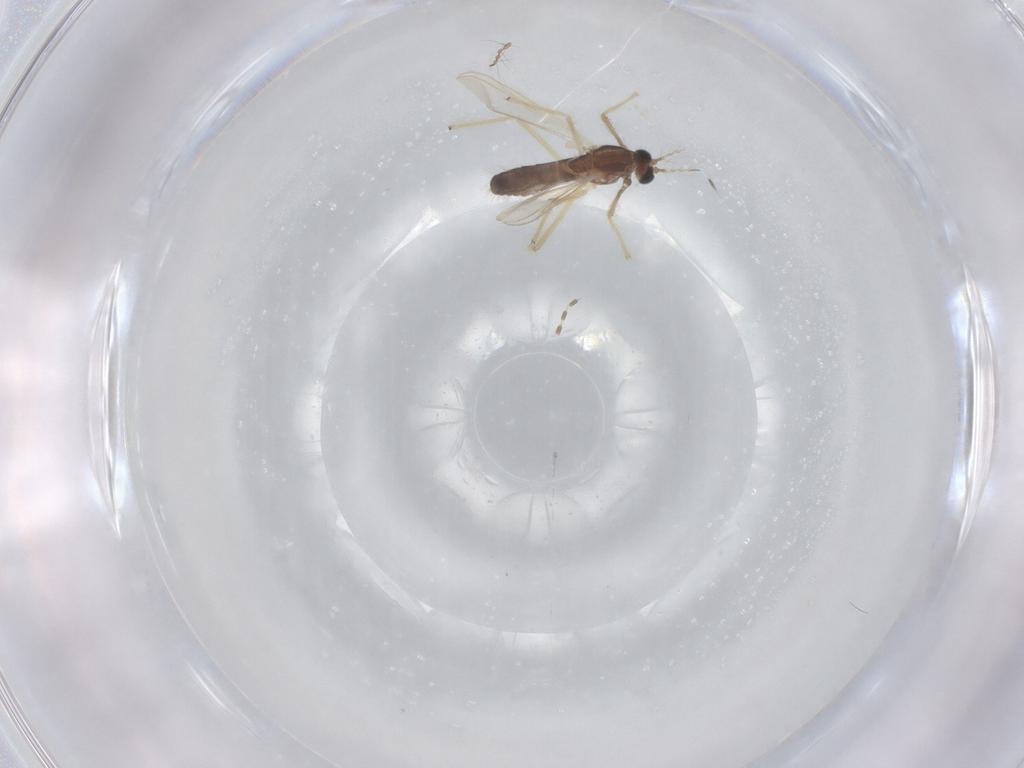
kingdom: Animalia
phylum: Arthropoda
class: Insecta
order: Diptera
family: Chironomidae
